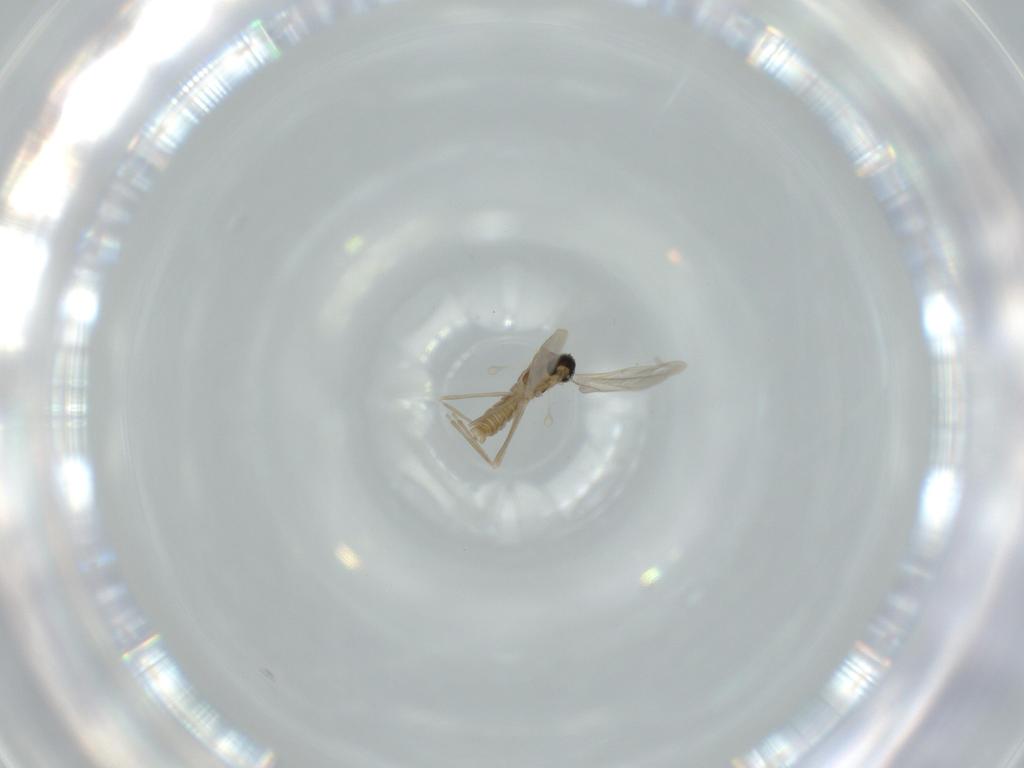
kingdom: Animalia
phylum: Arthropoda
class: Insecta
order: Diptera
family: Cecidomyiidae
